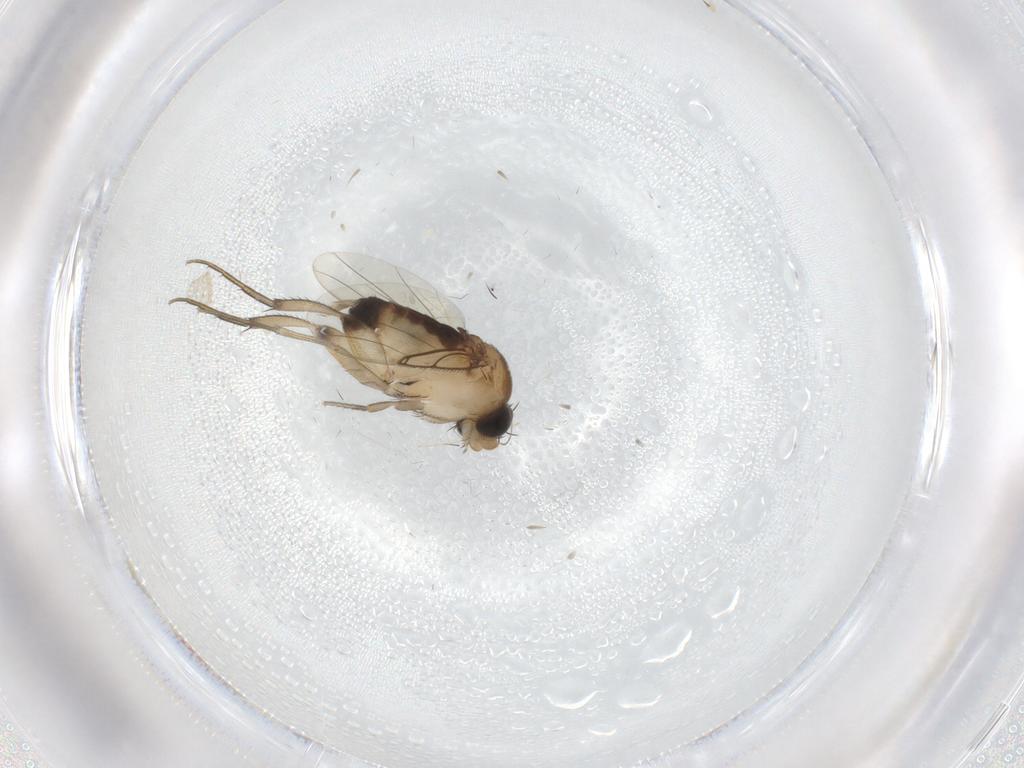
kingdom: Animalia
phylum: Arthropoda
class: Insecta
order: Diptera
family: Phoridae
